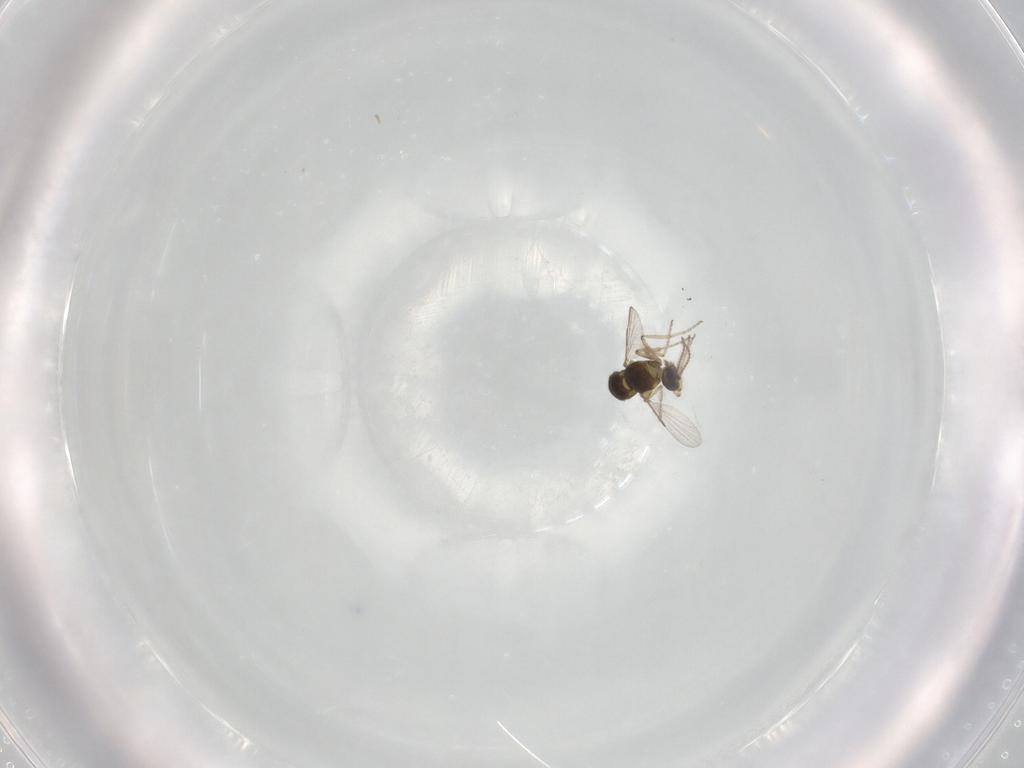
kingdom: Animalia
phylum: Arthropoda
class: Insecta
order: Diptera
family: Ceratopogonidae
